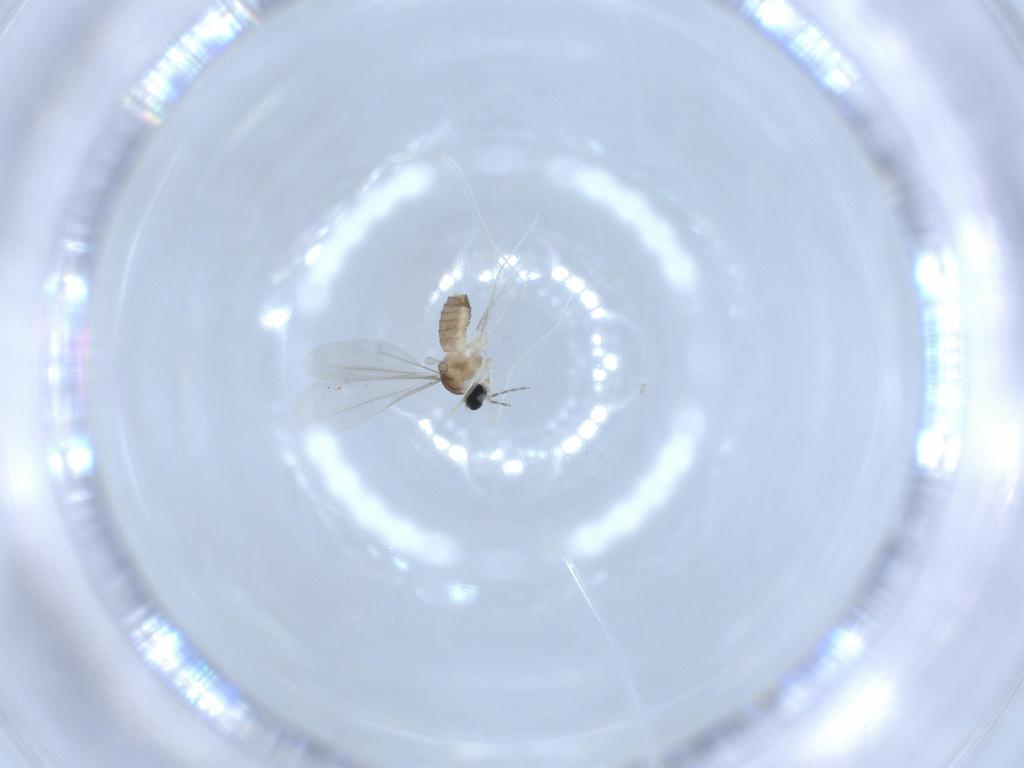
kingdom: Animalia
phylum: Arthropoda
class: Insecta
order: Diptera
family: Cecidomyiidae
